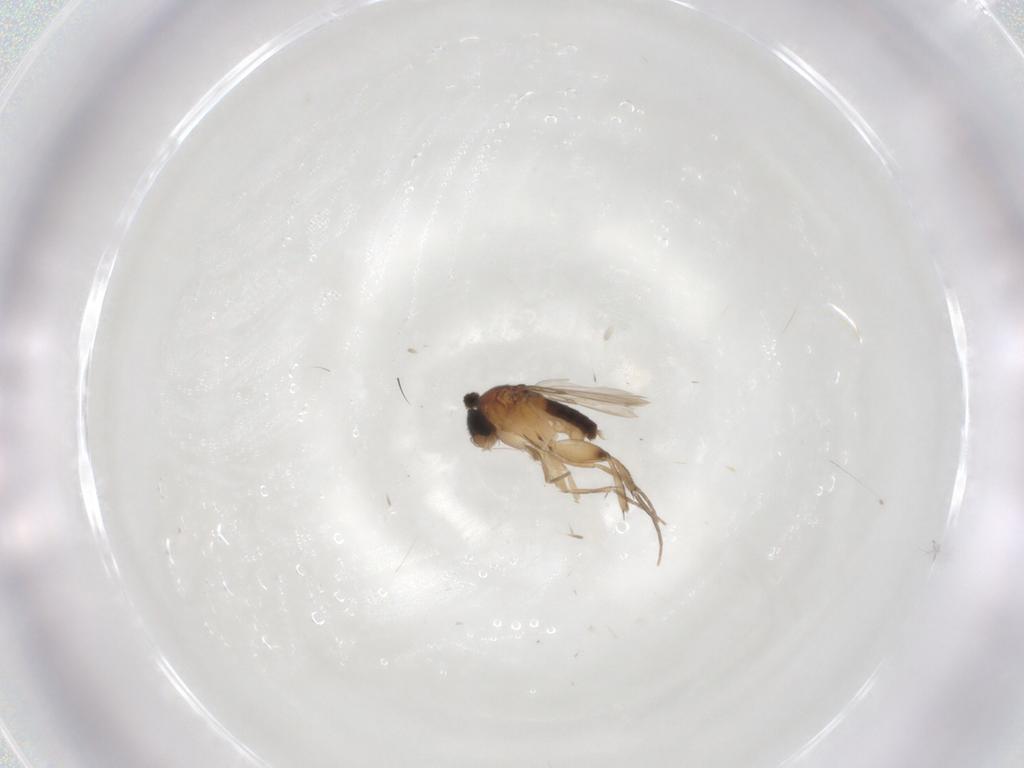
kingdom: Animalia
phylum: Arthropoda
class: Insecta
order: Diptera
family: Phoridae
